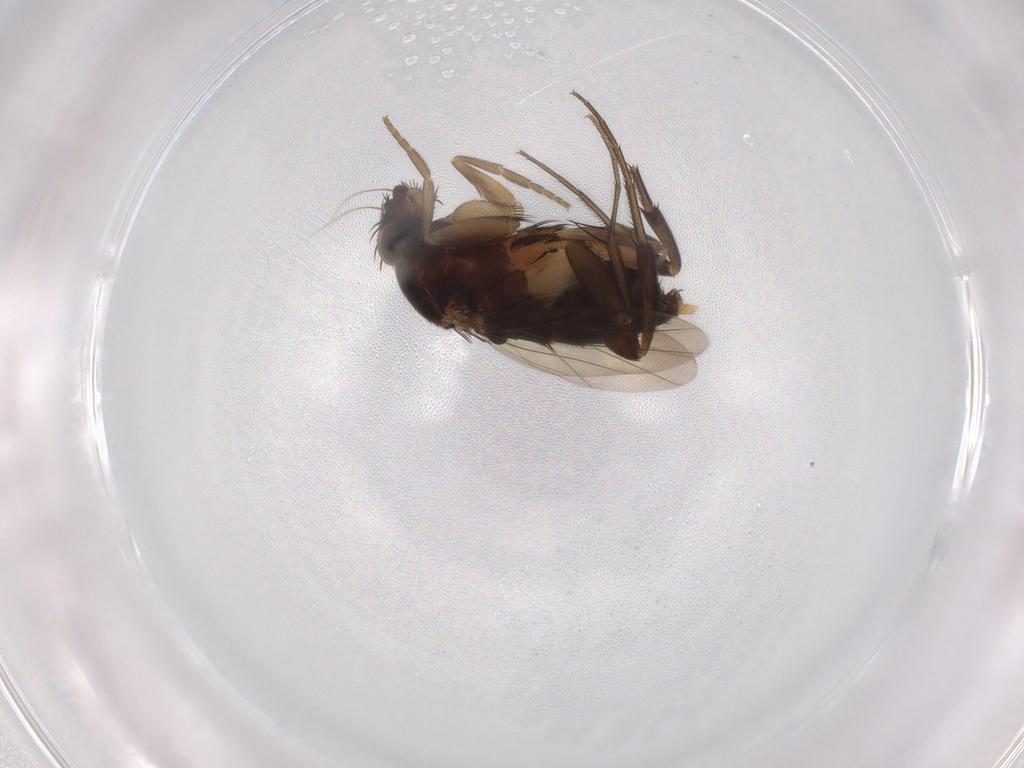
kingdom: Animalia
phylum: Arthropoda
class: Insecta
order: Diptera
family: Phoridae
